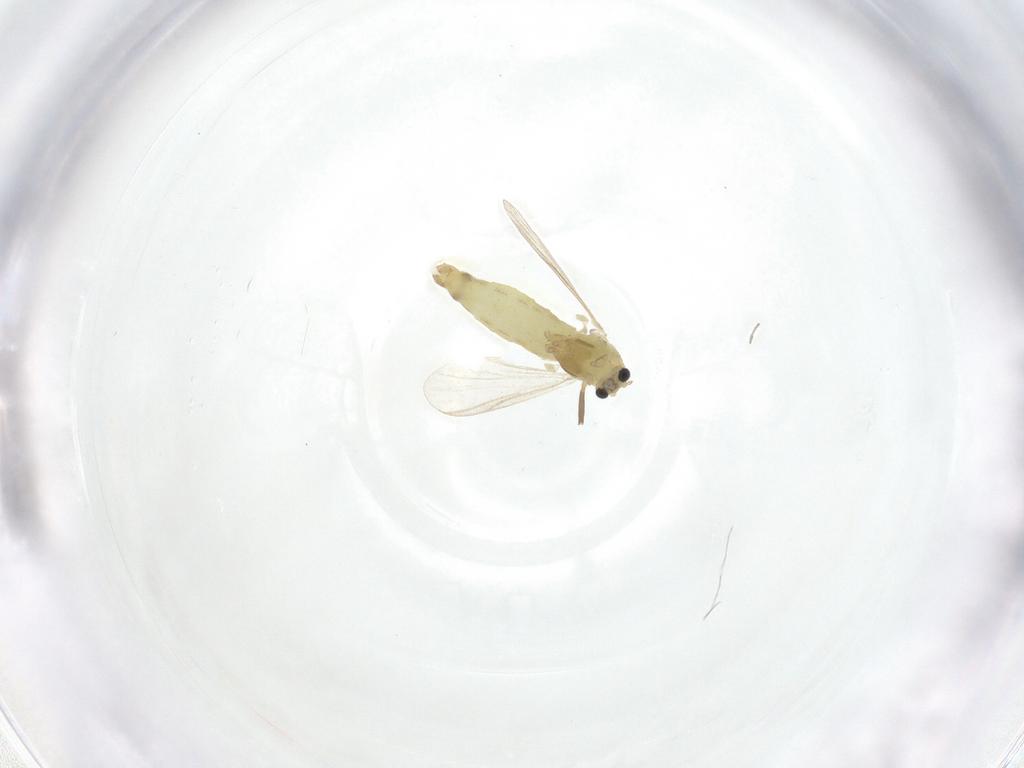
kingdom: Animalia
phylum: Arthropoda
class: Insecta
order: Diptera
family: Chironomidae
